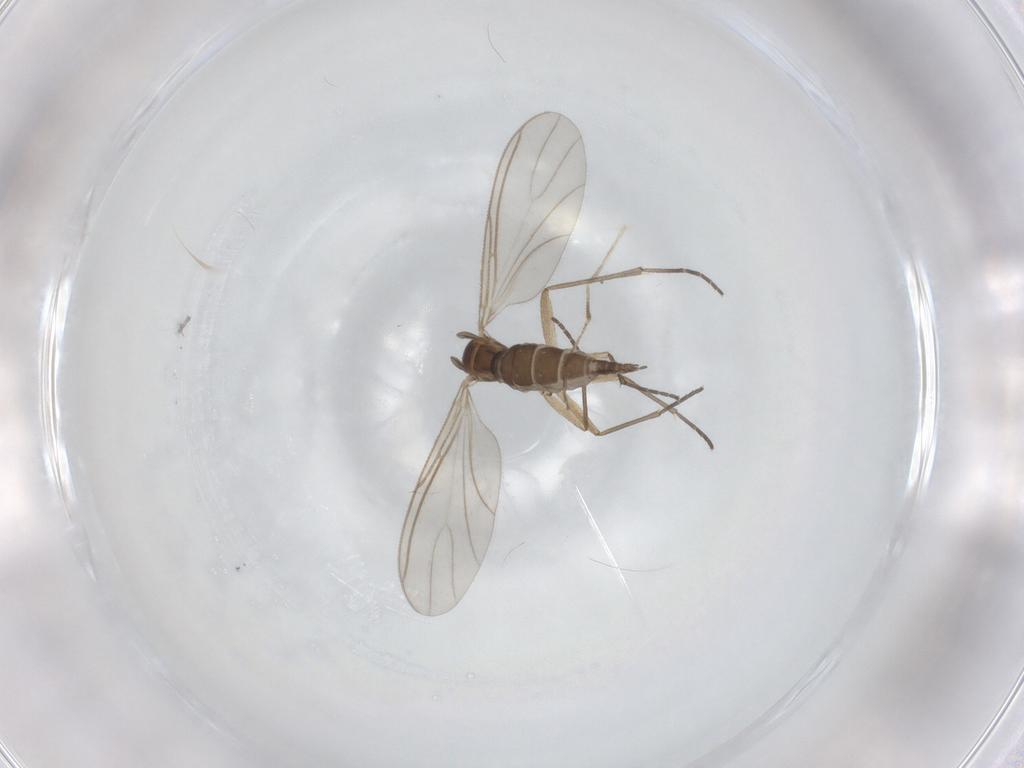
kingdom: Animalia
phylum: Arthropoda
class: Insecta
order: Diptera
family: Sciaridae
